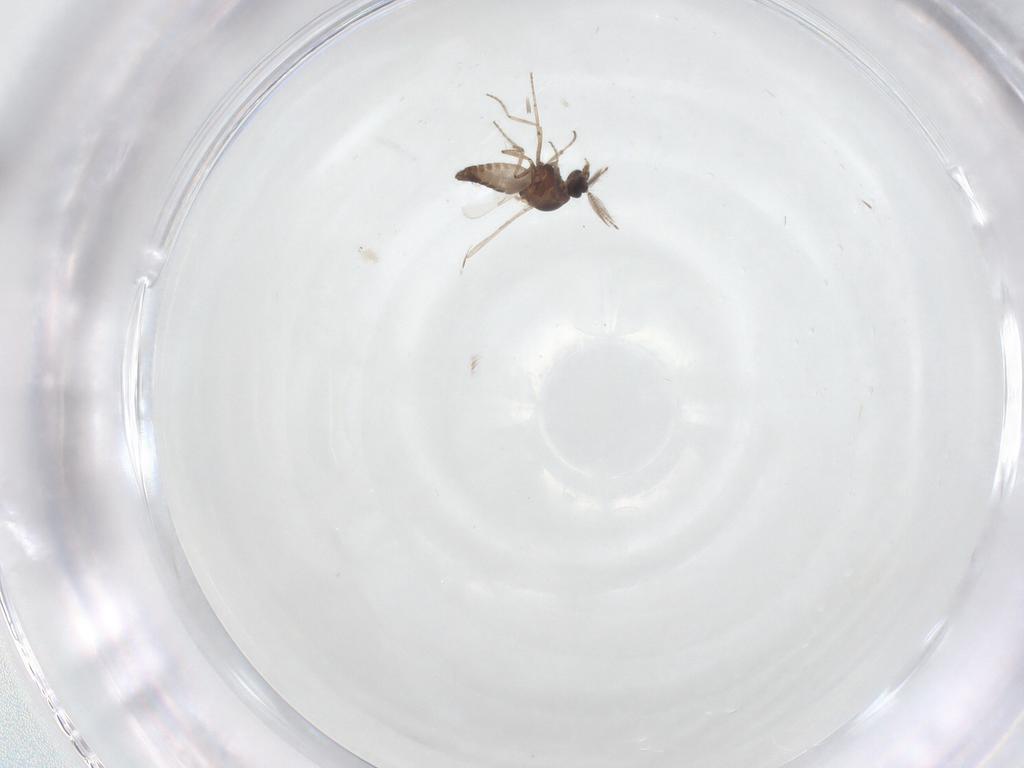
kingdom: Animalia
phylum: Arthropoda
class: Insecta
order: Diptera
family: Ceratopogonidae
